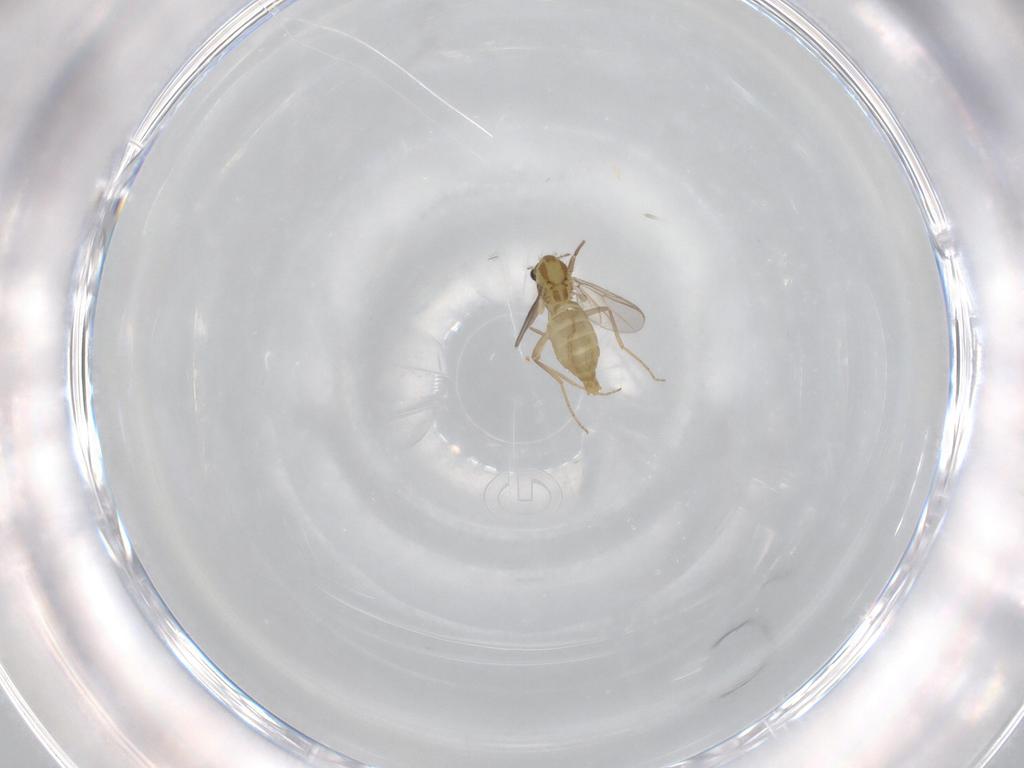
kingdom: Animalia
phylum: Arthropoda
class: Insecta
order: Diptera
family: Chironomidae
